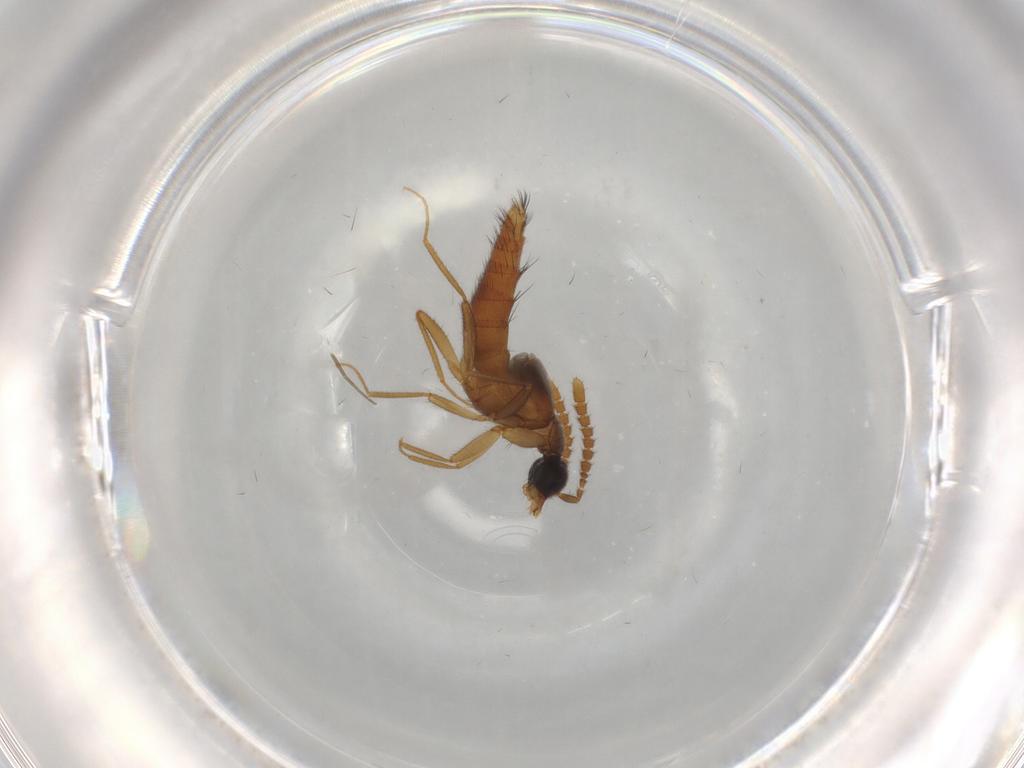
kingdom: Animalia
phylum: Arthropoda
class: Insecta
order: Coleoptera
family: Staphylinidae
